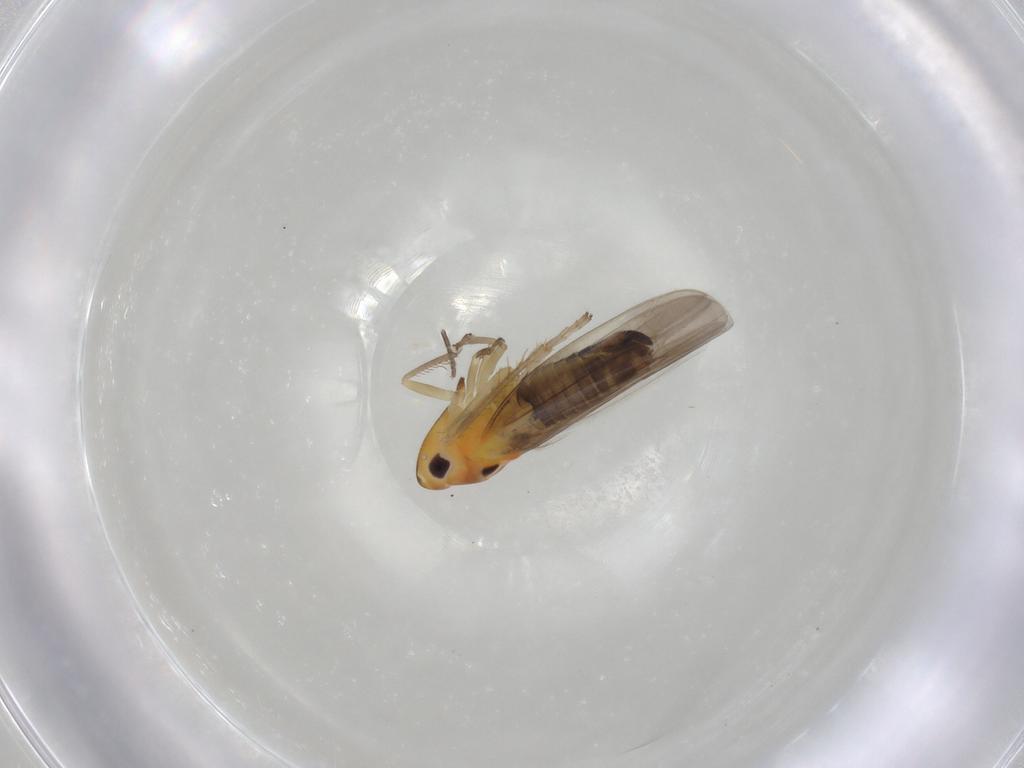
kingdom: Animalia
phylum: Arthropoda
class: Insecta
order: Hemiptera
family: Cicadellidae
